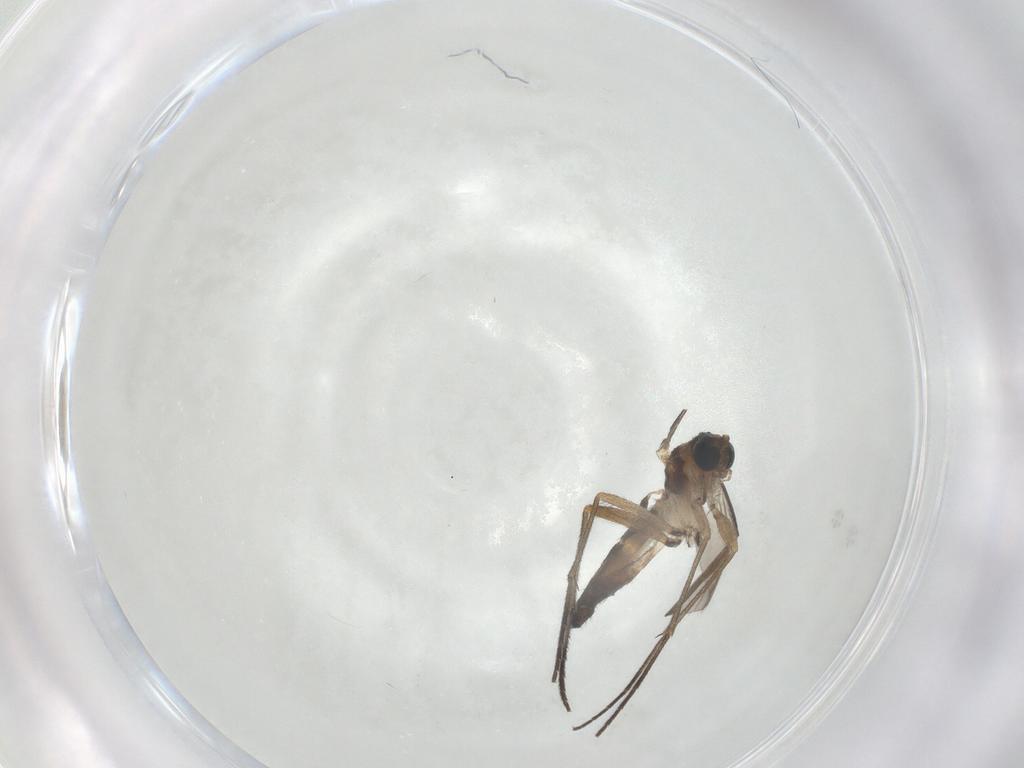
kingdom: Animalia
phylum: Arthropoda
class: Insecta
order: Diptera
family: Sciaridae
